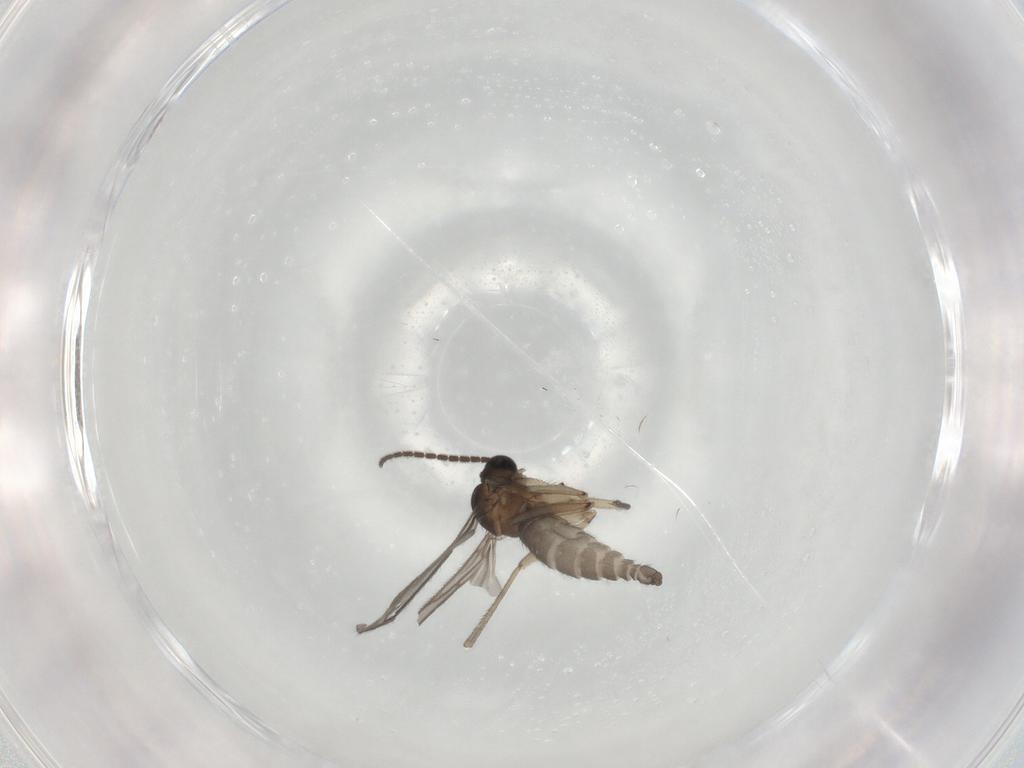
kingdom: Animalia
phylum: Arthropoda
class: Insecta
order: Diptera
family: Sciaridae
